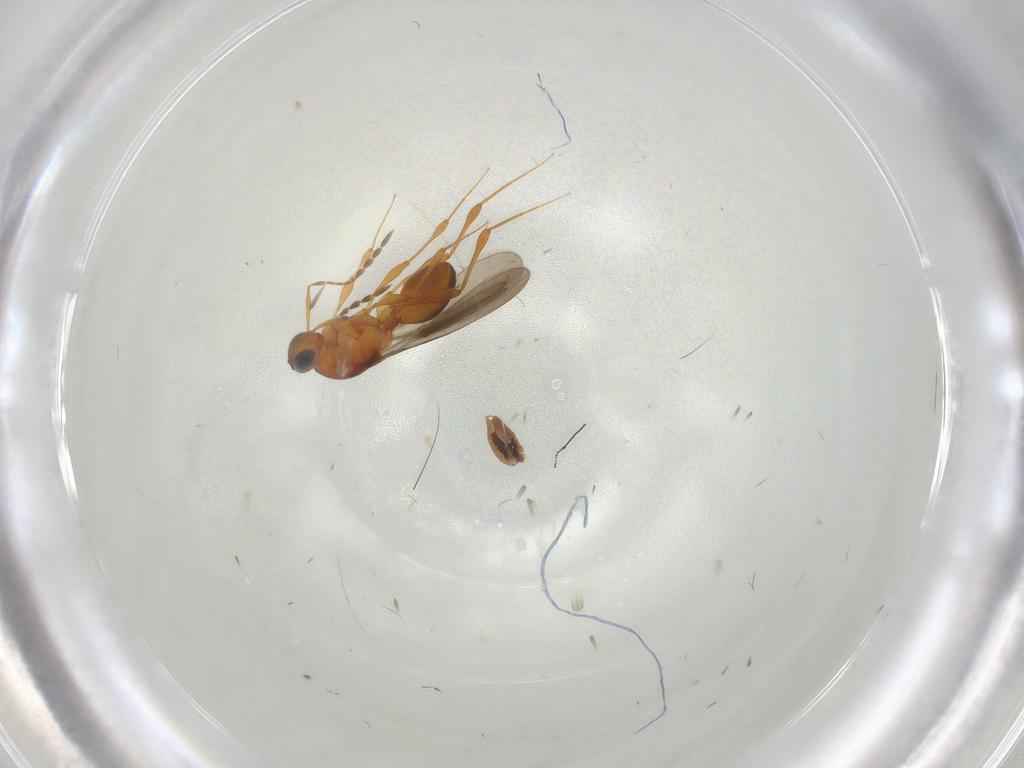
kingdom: Animalia
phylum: Arthropoda
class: Insecta
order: Hymenoptera
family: Platygastridae
